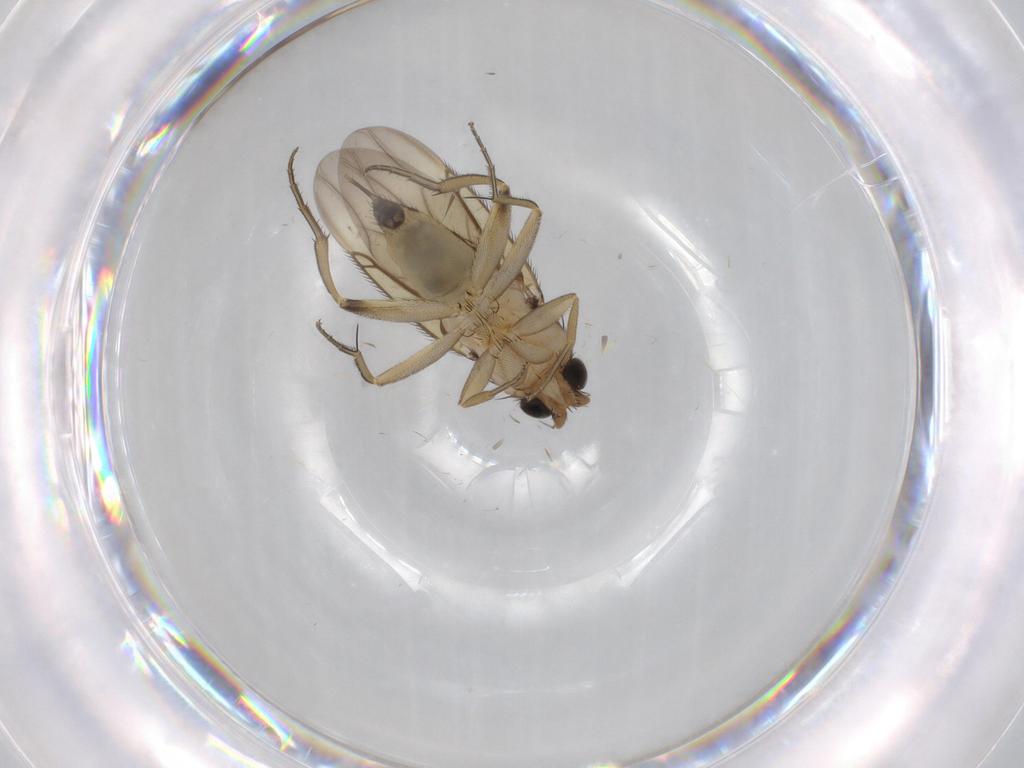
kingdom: Animalia
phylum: Arthropoda
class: Insecta
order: Diptera
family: Phoridae
